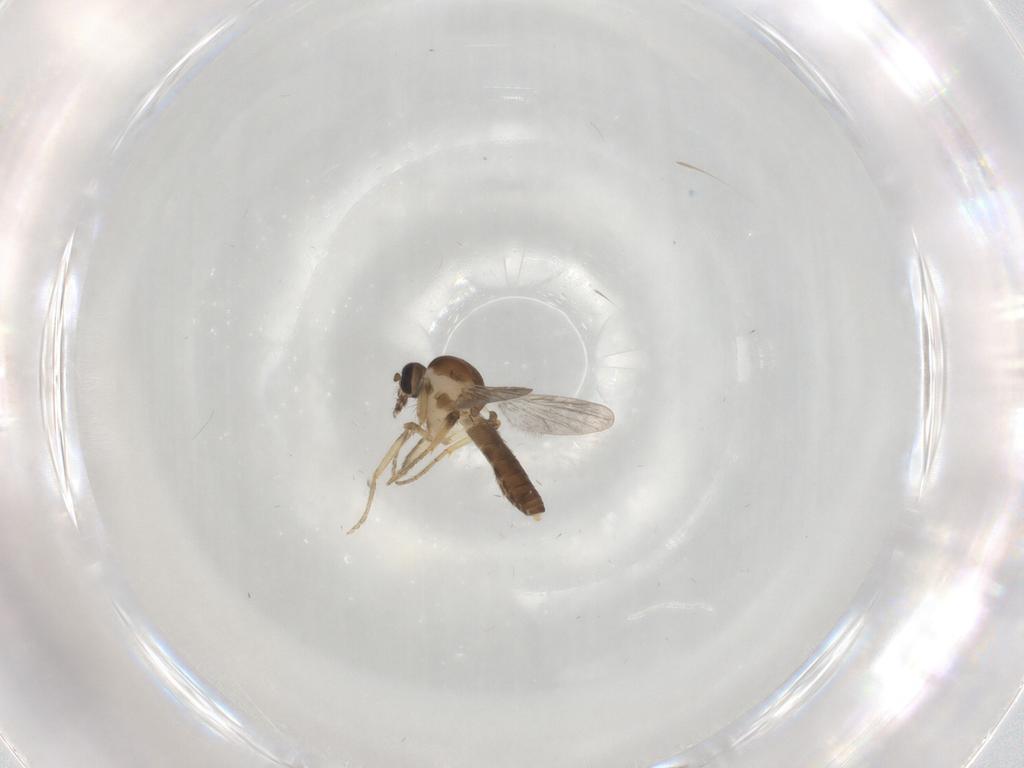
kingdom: Animalia
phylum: Arthropoda
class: Insecta
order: Diptera
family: Ceratopogonidae
